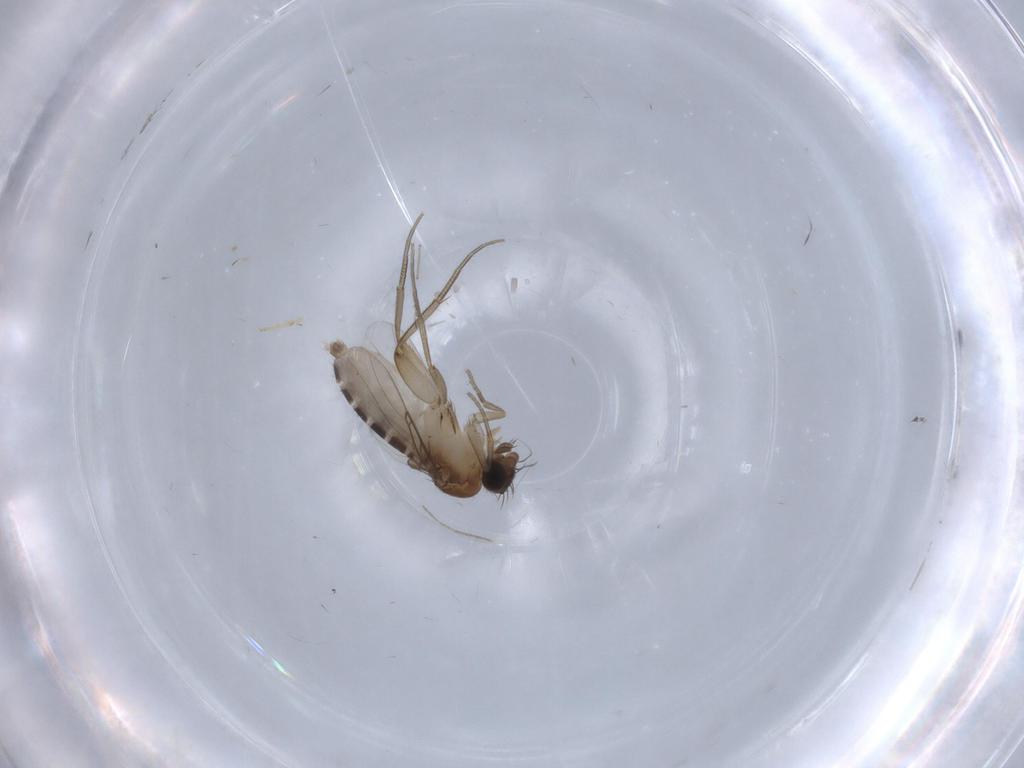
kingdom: Animalia
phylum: Arthropoda
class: Insecta
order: Diptera
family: Phoridae
